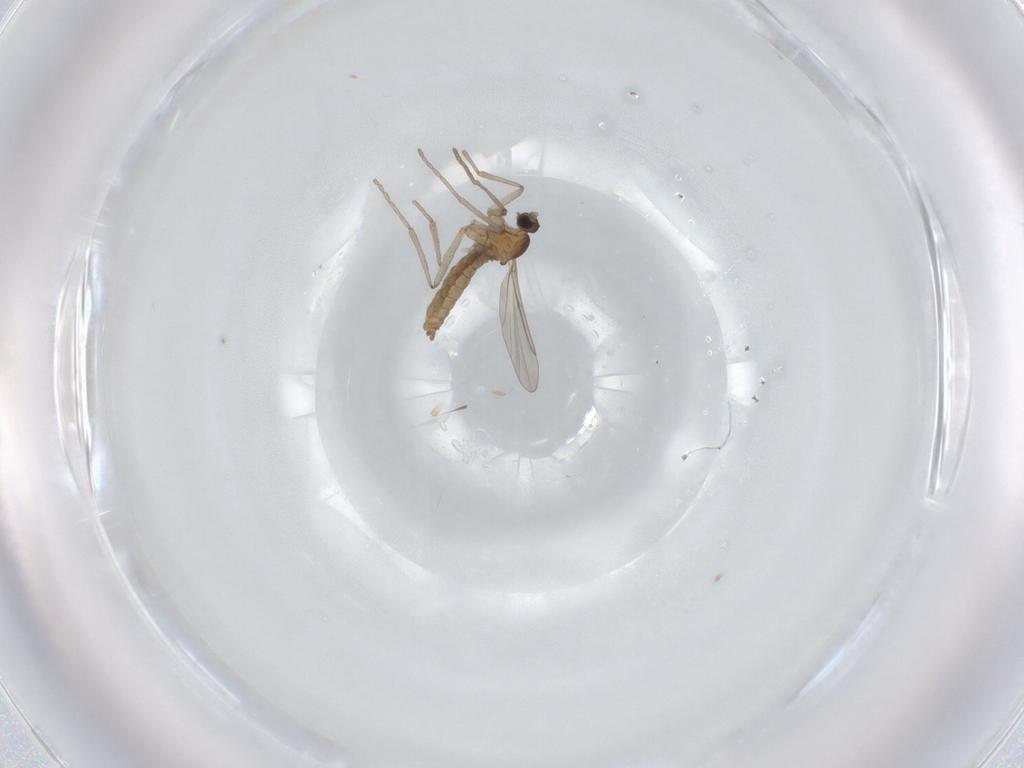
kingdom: Animalia
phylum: Arthropoda
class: Insecta
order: Diptera
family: Cecidomyiidae
